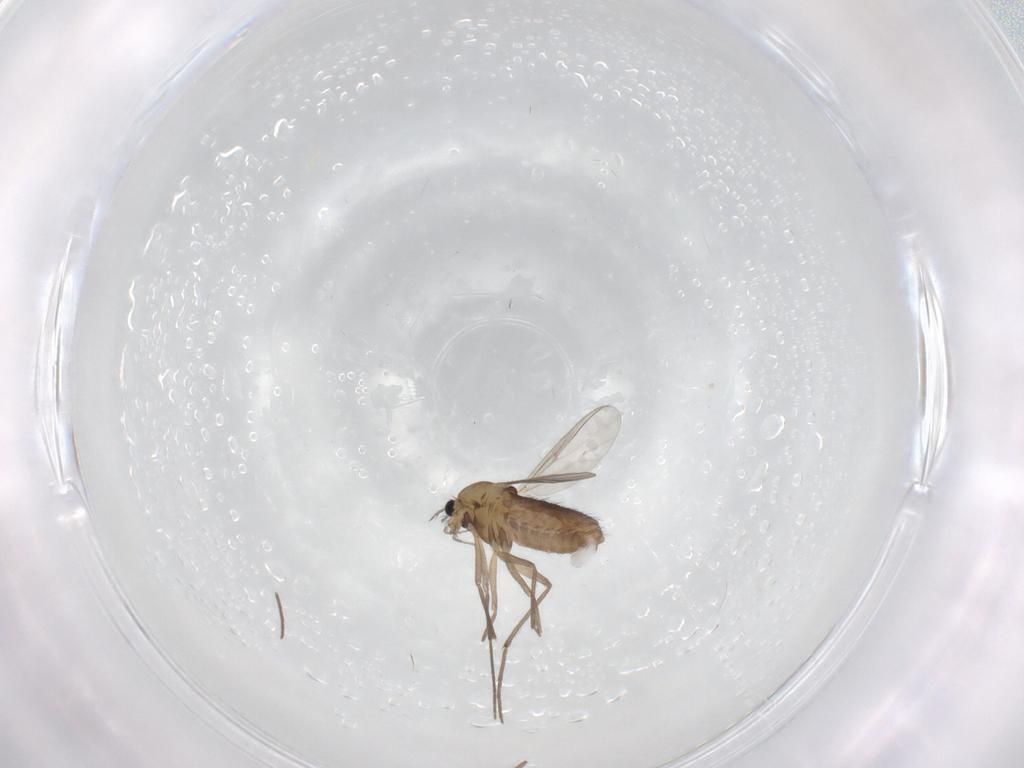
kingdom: Animalia
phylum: Arthropoda
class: Insecta
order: Diptera
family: Chironomidae
